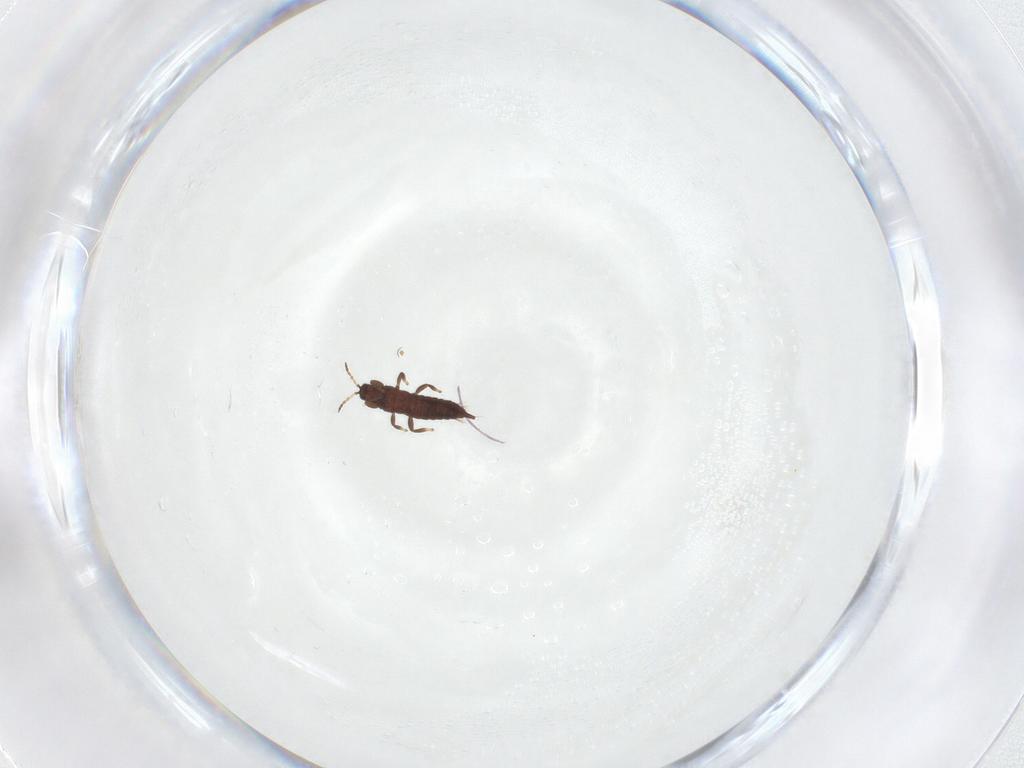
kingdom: Animalia
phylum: Arthropoda
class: Insecta
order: Thysanoptera
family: Phlaeothripidae
